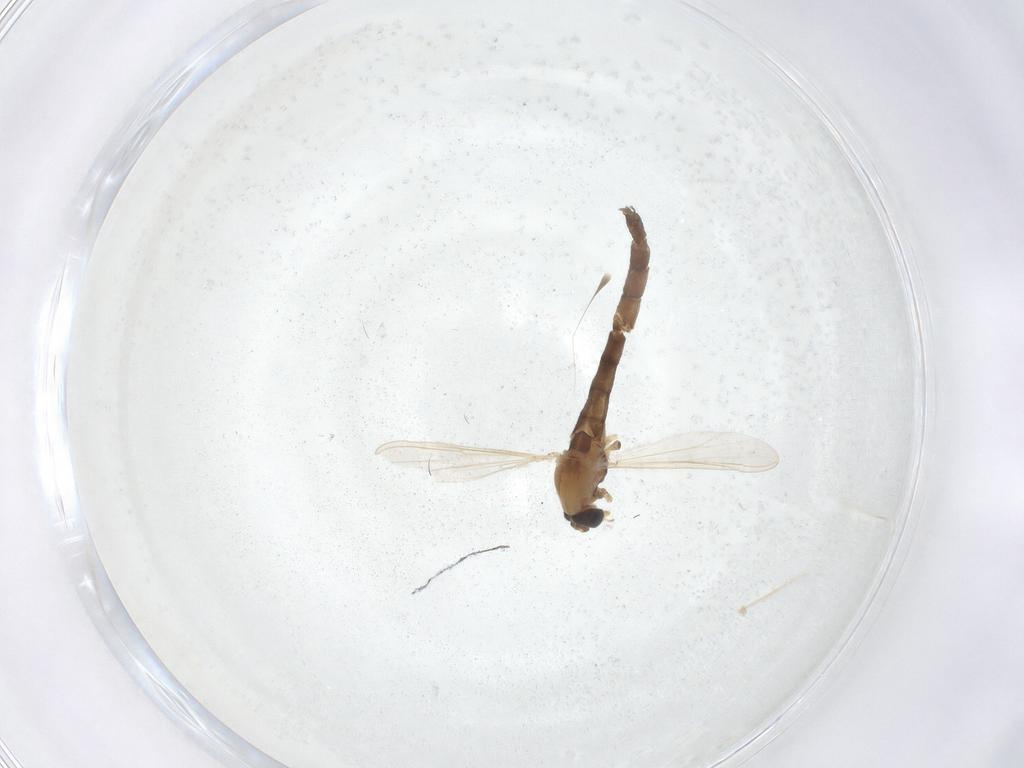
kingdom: Animalia
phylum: Arthropoda
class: Insecta
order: Diptera
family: Chironomidae
